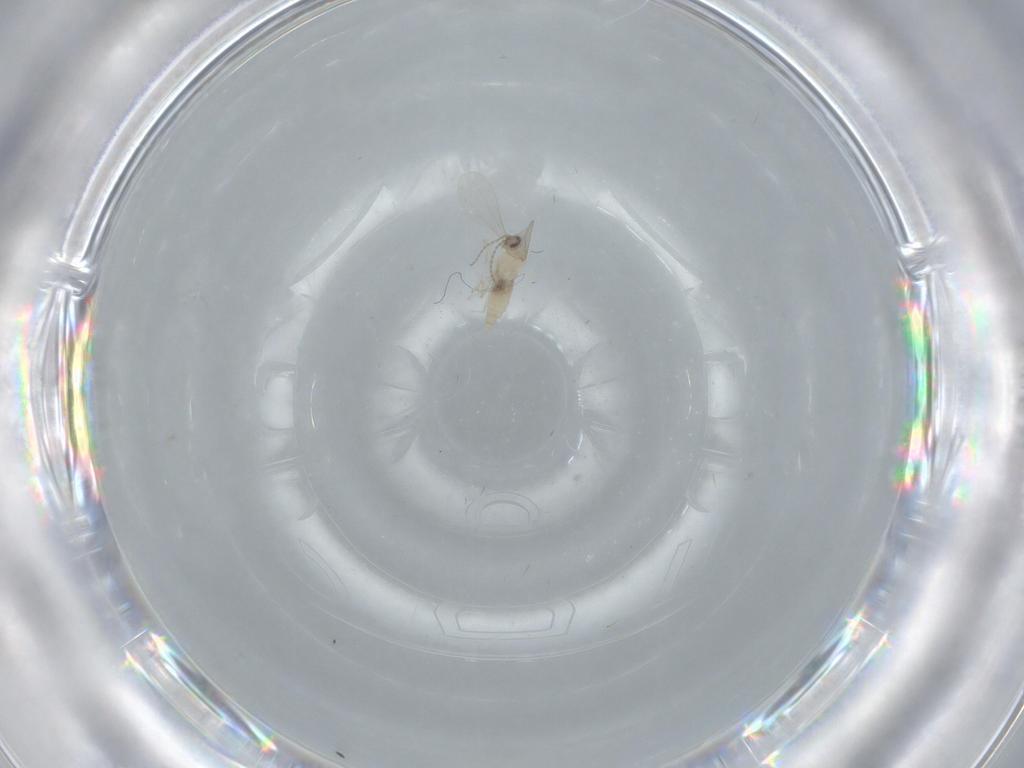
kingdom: Animalia
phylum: Arthropoda
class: Insecta
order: Diptera
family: Cecidomyiidae
